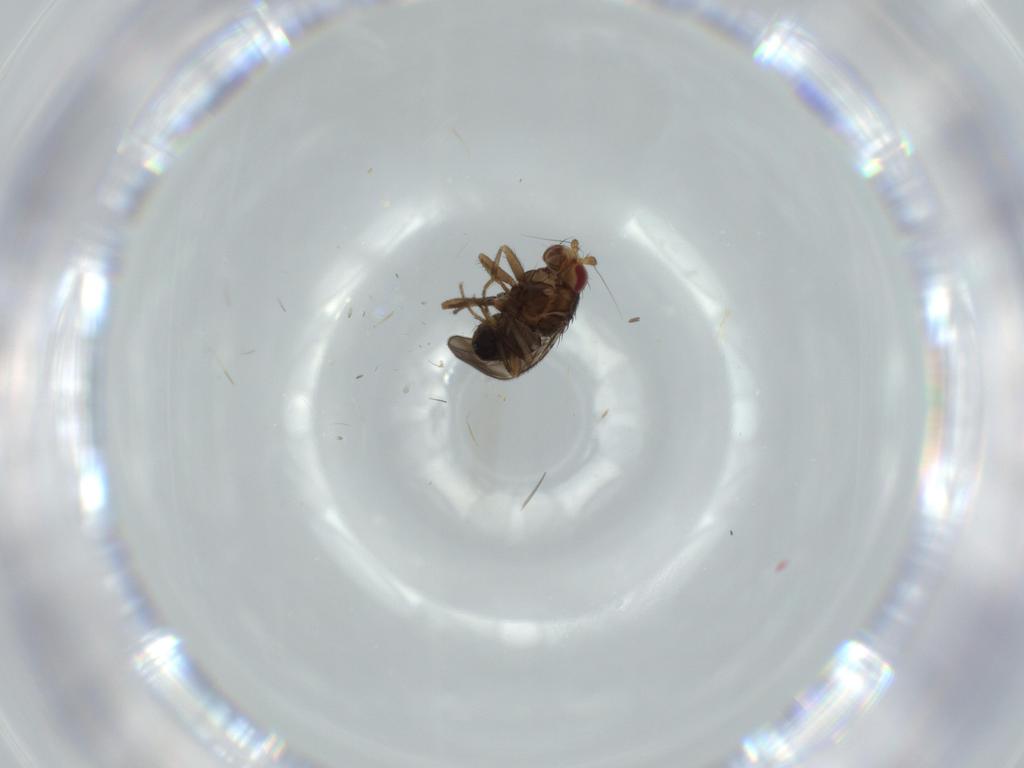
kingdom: Animalia
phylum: Arthropoda
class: Insecta
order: Diptera
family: Sphaeroceridae
